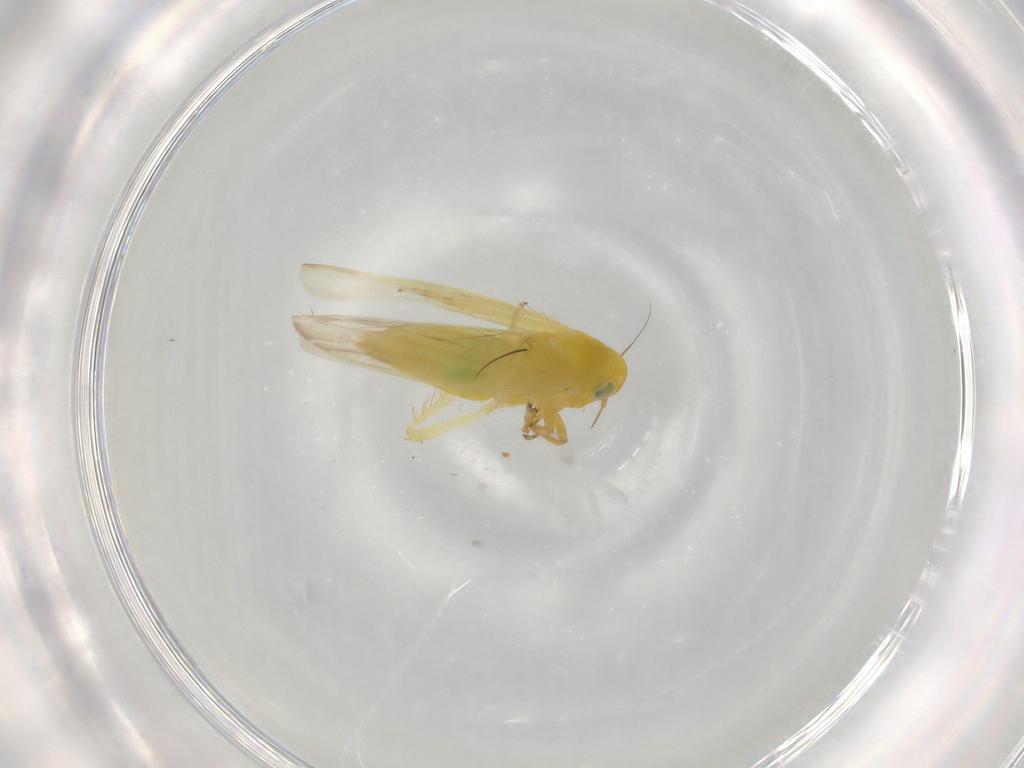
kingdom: Animalia
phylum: Arthropoda
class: Insecta
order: Hemiptera
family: Cicadellidae
